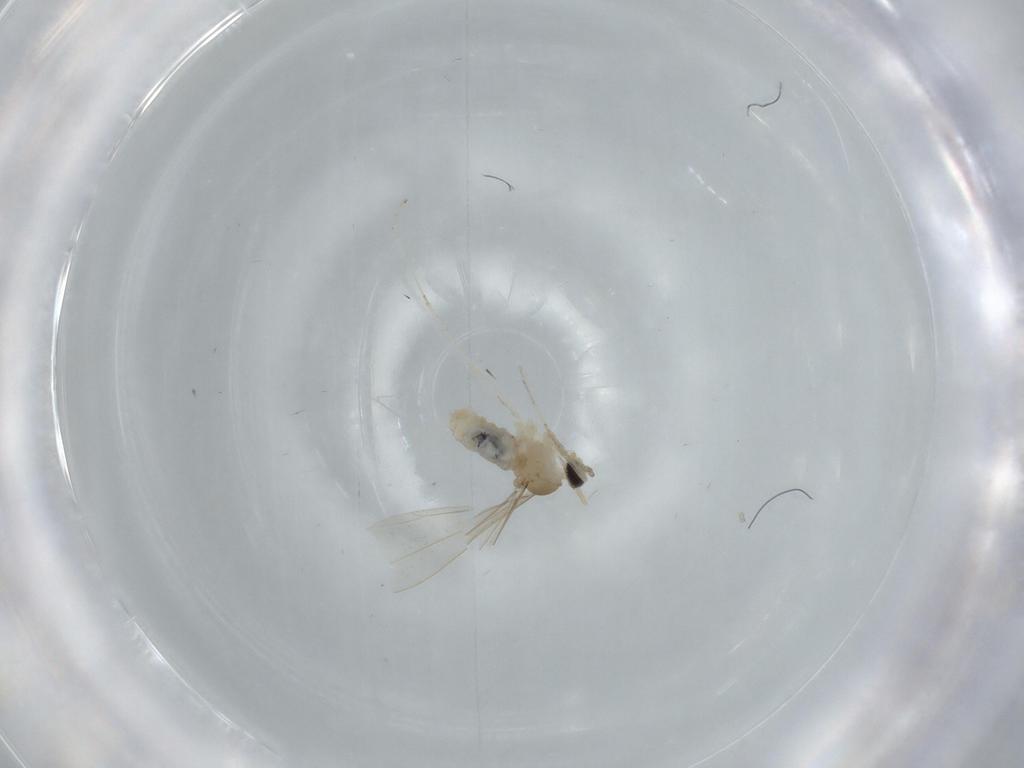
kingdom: Animalia
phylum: Arthropoda
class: Insecta
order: Diptera
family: Cecidomyiidae
